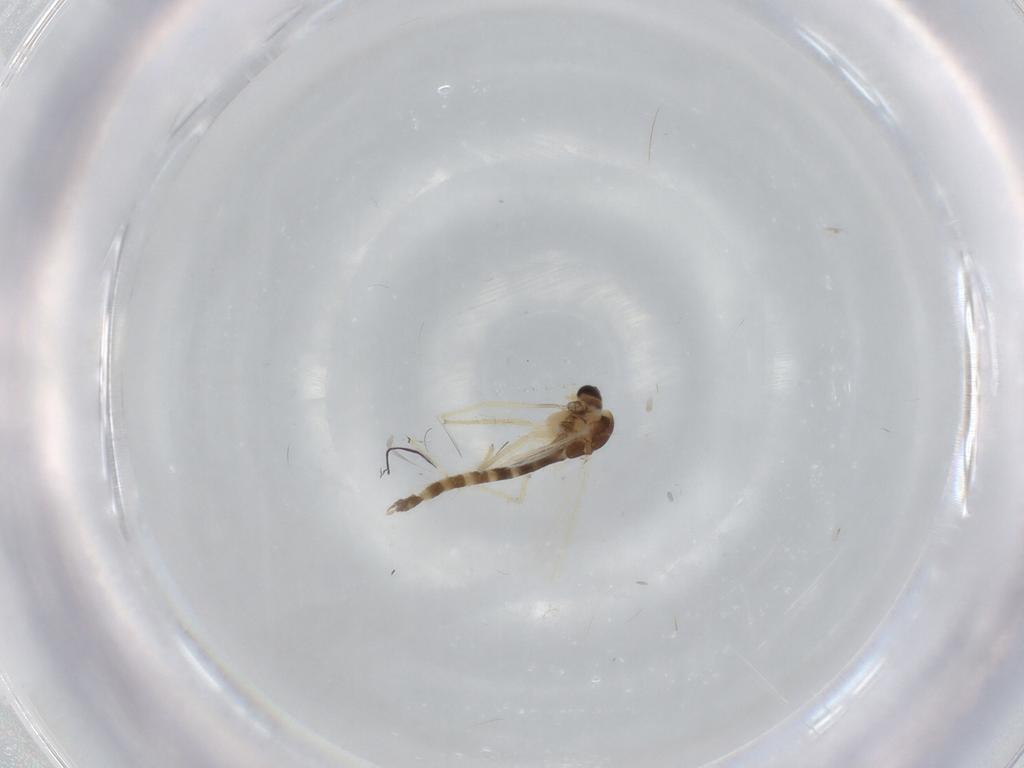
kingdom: Animalia
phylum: Arthropoda
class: Insecta
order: Diptera
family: Chironomidae
